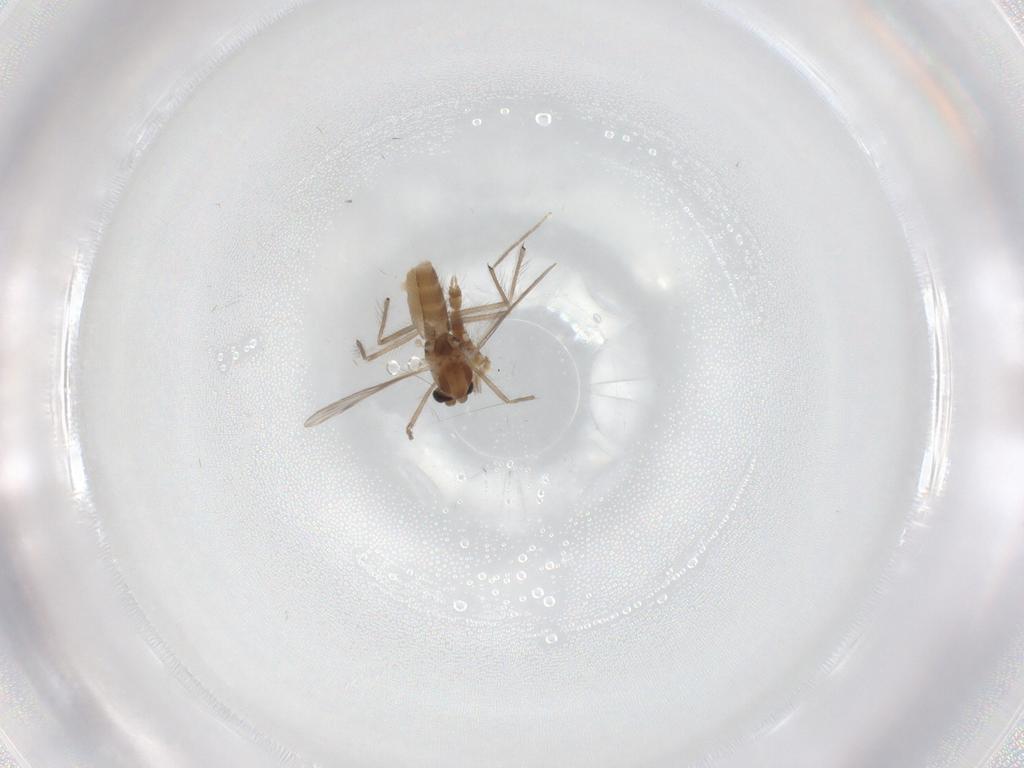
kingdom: Animalia
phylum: Arthropoda
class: Insecta
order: Diptera
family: Chironomidae
